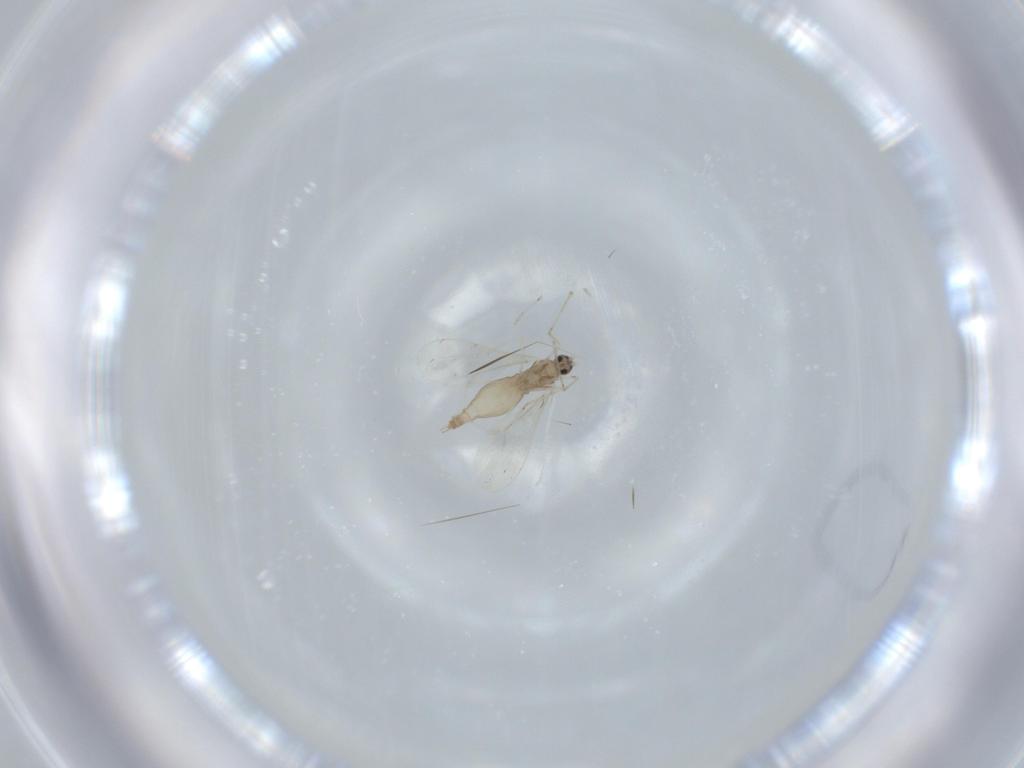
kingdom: Animalia
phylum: Arthropoda
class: Insecta
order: Diptera
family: Cecidomyiidae
